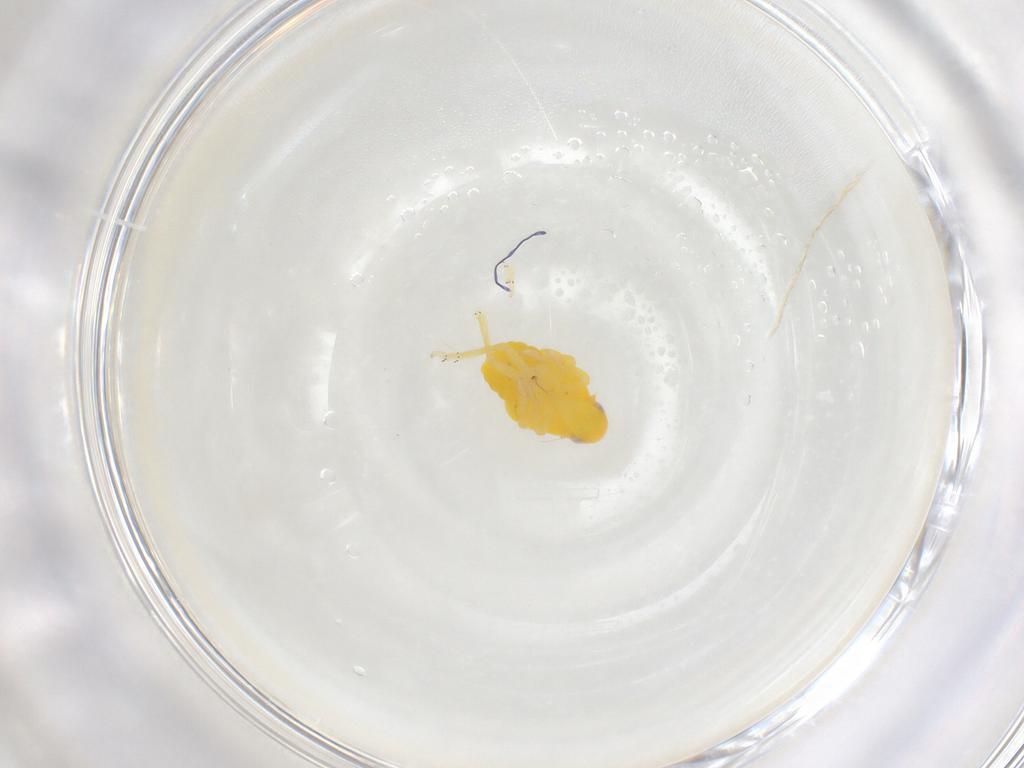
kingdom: Animalia
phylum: Arthropoda
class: Insecta
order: Hemiptera
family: Tropiduchidae
